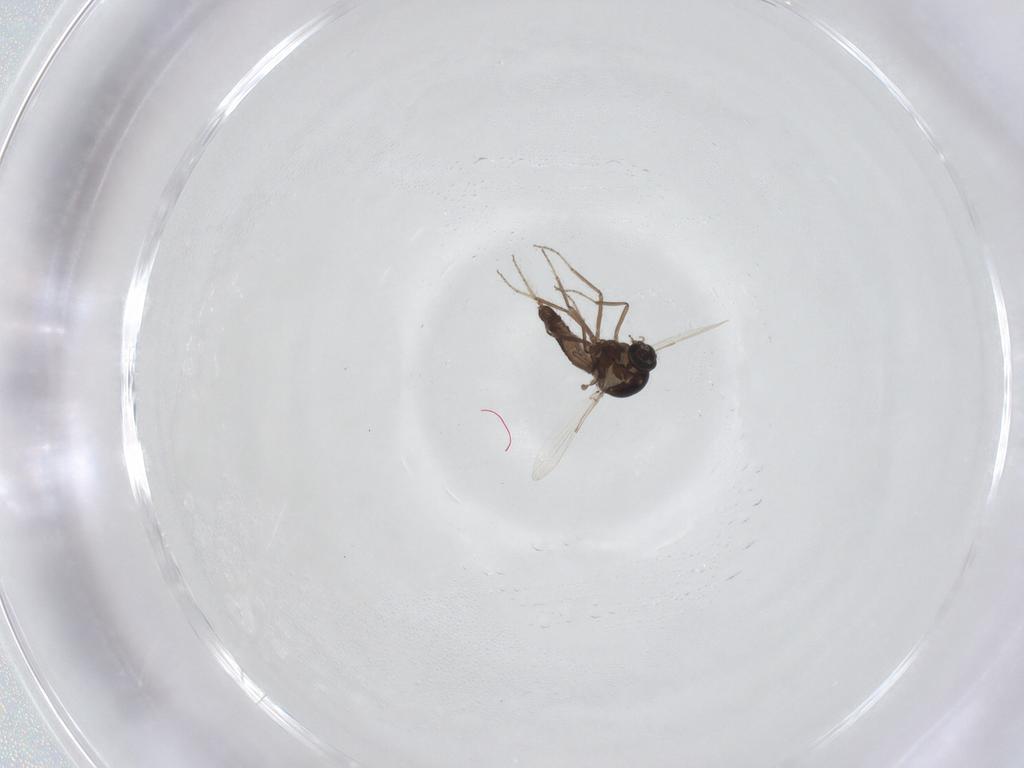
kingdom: Animalia
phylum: Arthropoda
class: Insecta
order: Diptera
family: Ceratopogonidae
